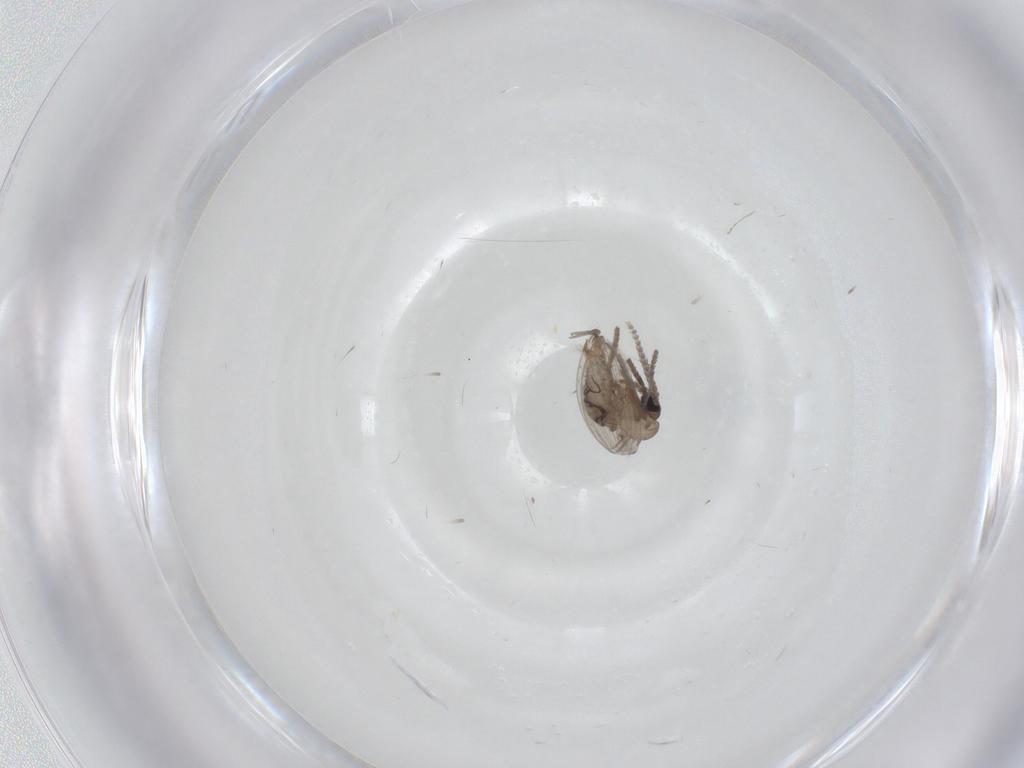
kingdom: Animalia
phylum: Arthropoda
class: Insecta
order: Diptera
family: Psychodidae
